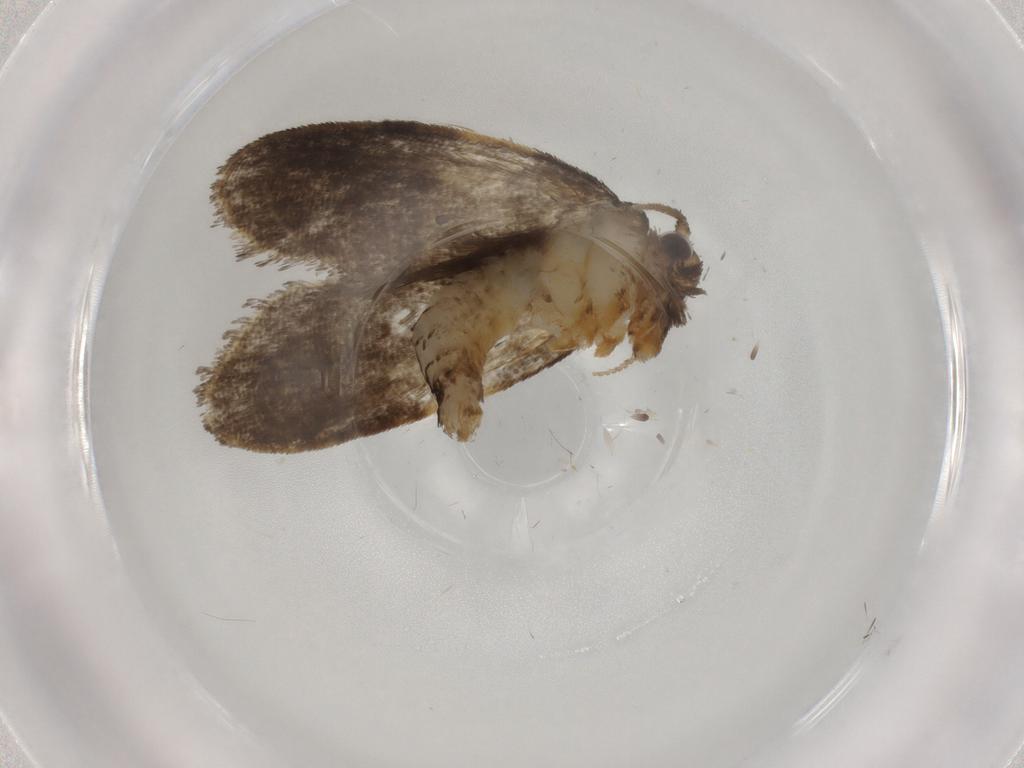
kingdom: Animalia
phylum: Arthropoda
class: Insecta
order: Lepidoptera
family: Psychidae
